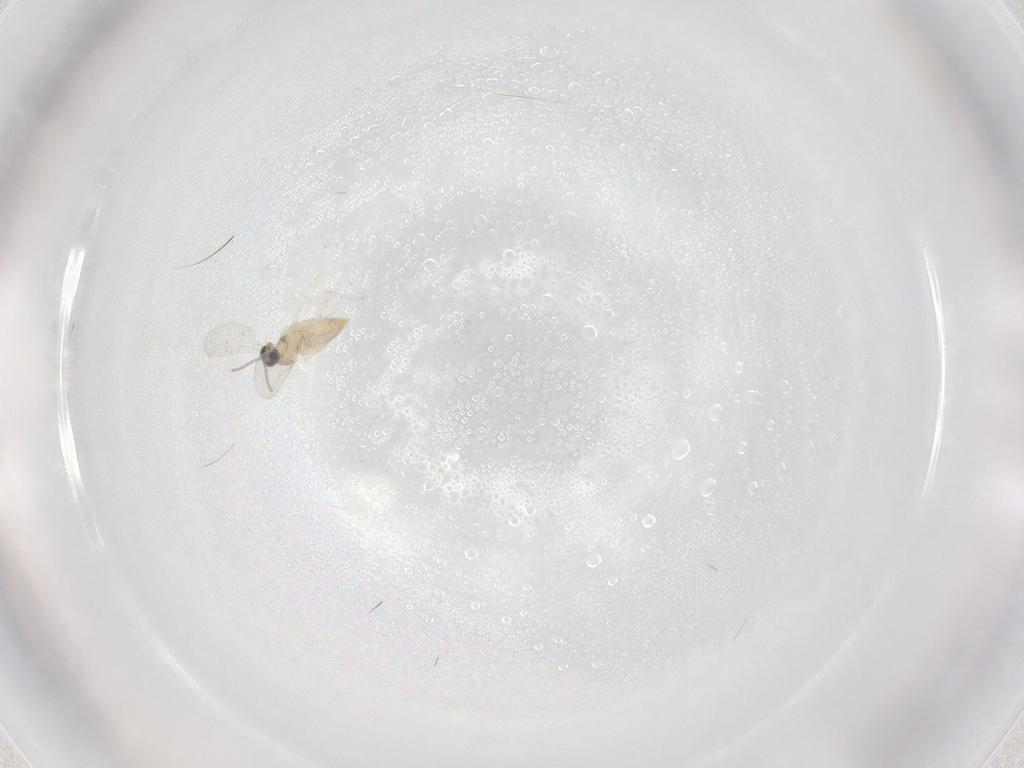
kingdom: Animalia
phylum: Arthropoda
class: Insecta
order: Diptera
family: Cecidomyiidae
